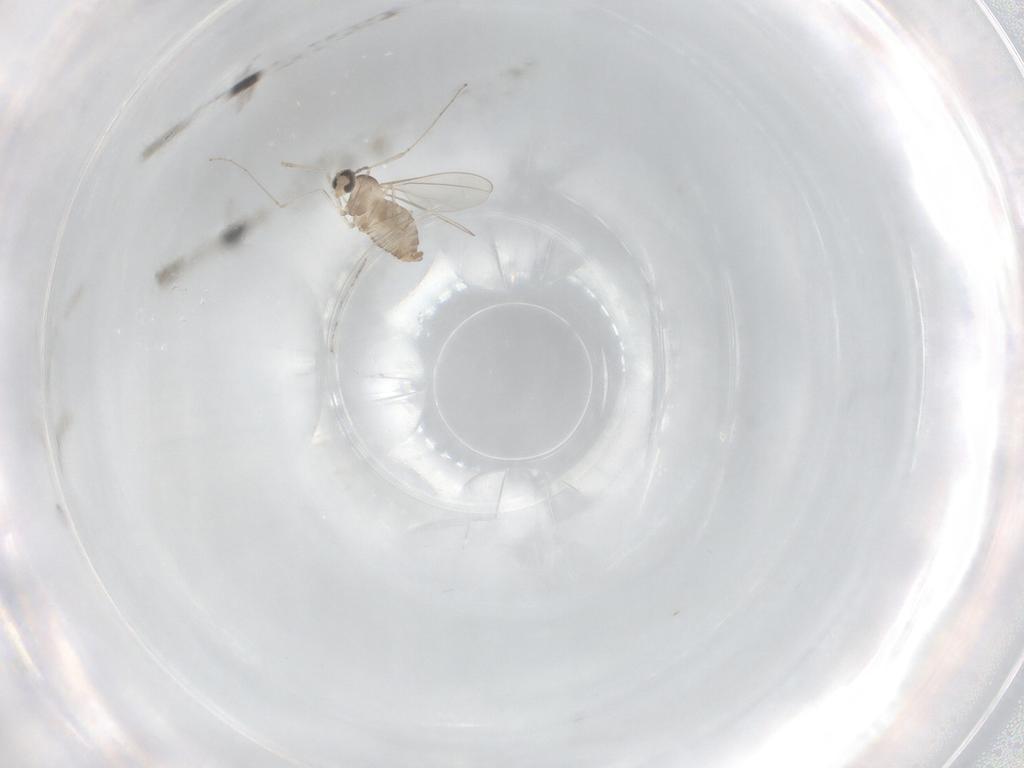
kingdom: Animalia
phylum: Arthropoda
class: Insecta
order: Diptera
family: Cecidomyiidae
